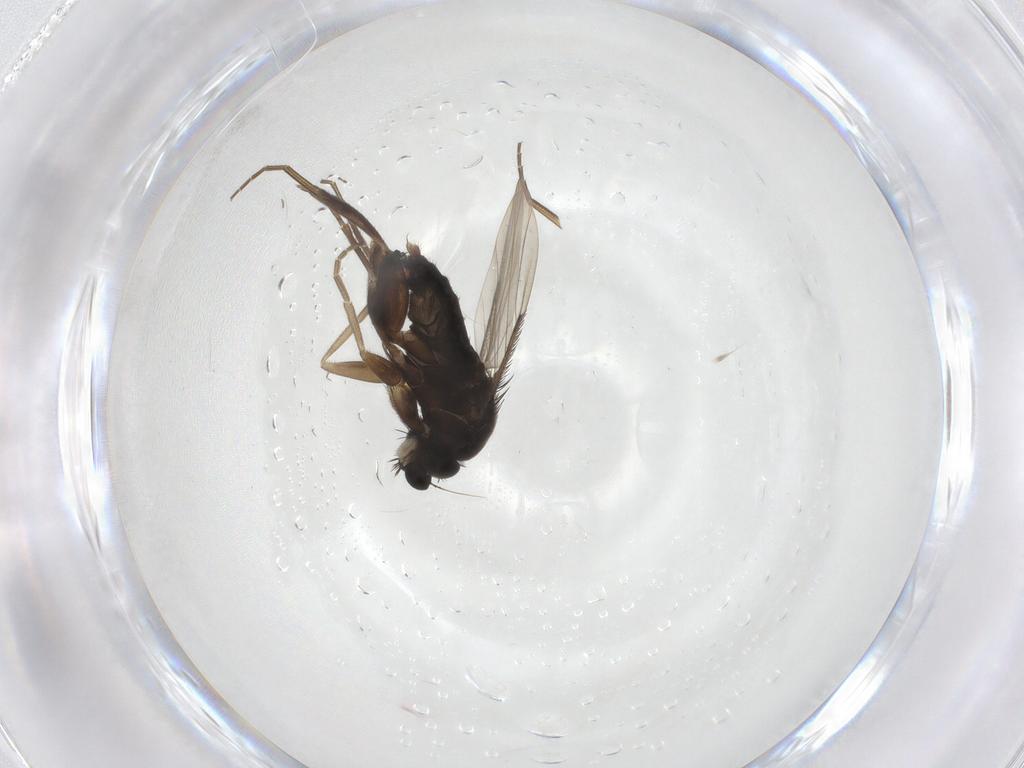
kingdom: Animalia
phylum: Arthropoda
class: Insecta
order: Diptera
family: Phoridae
